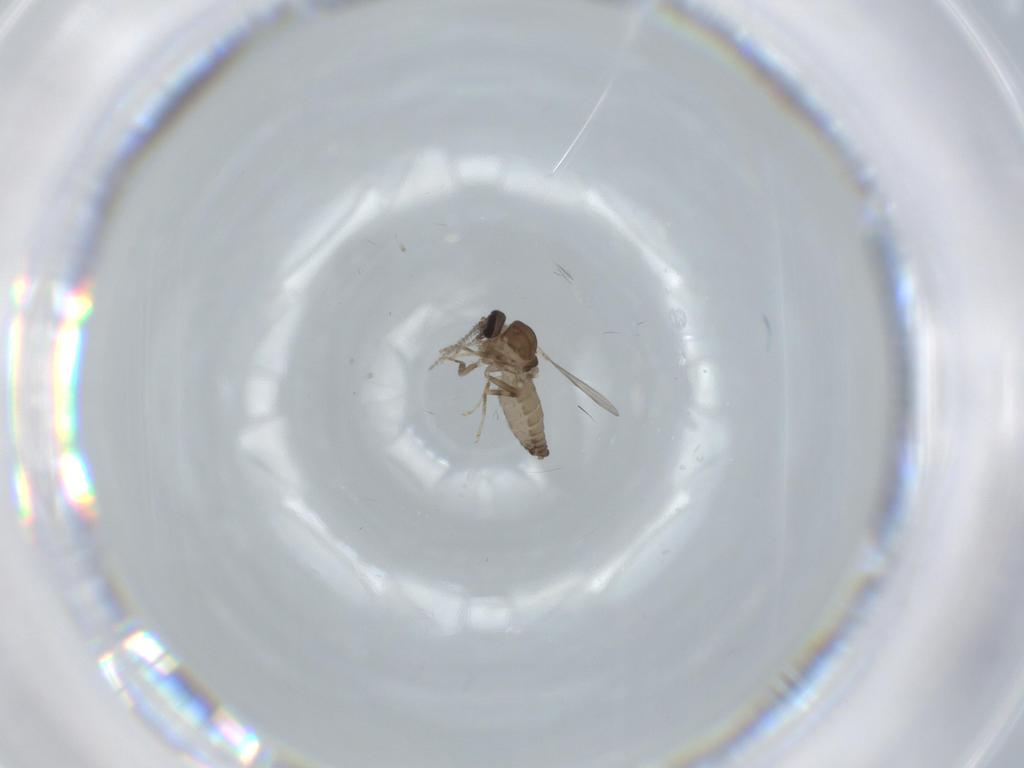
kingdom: Animalia
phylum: Arthropoda
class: Insecta
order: Diptera
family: Ceratopogonidae
